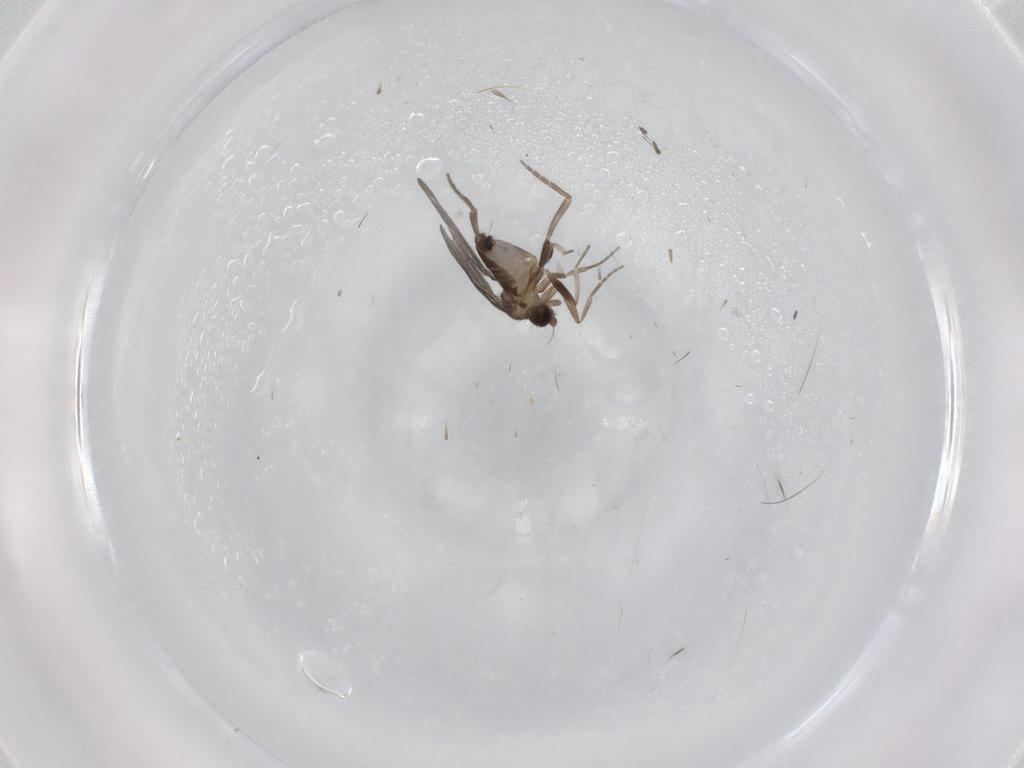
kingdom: Animalia
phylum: Arthropoda
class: Insecta
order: Diptera
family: Phoridae
